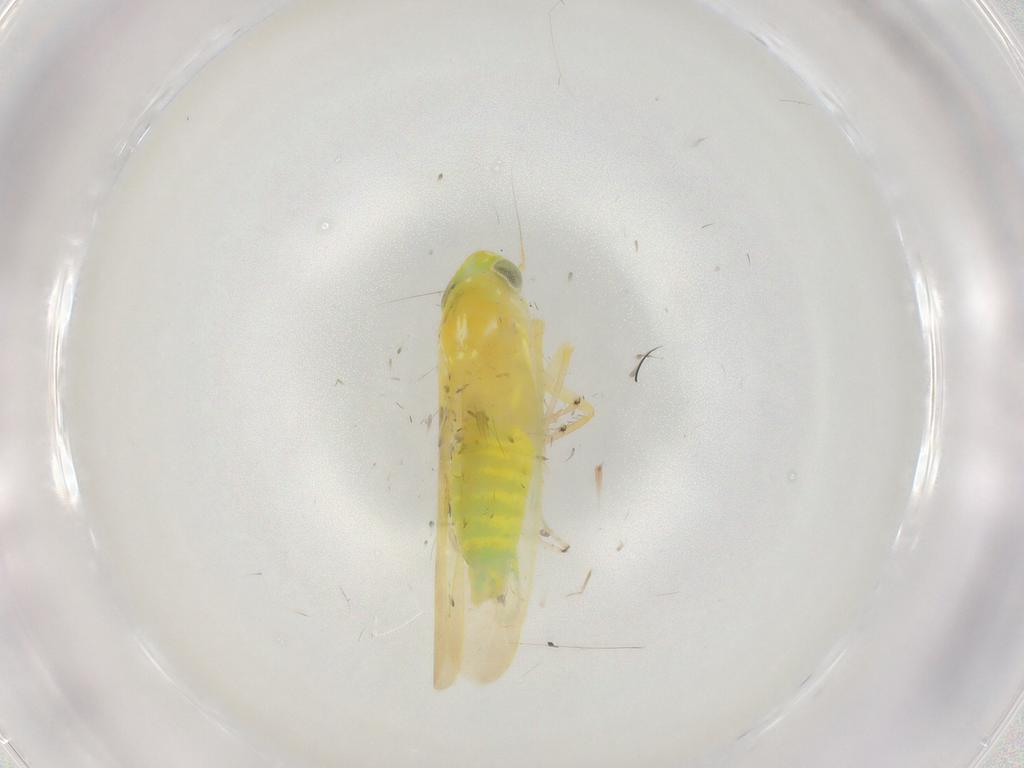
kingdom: Animalia
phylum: Arthropoda
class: Insecta
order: Hemiptera
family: Cicadellidae
